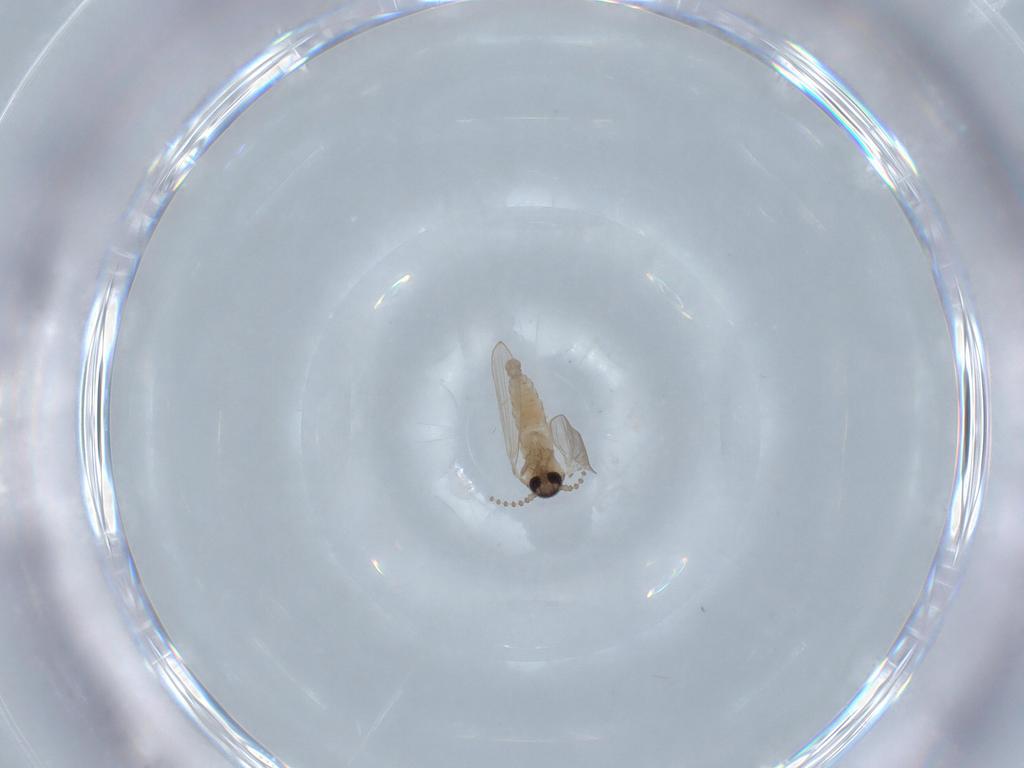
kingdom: Animalia
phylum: Arthropoda
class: Insecta
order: Diptera
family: Psychodidae
